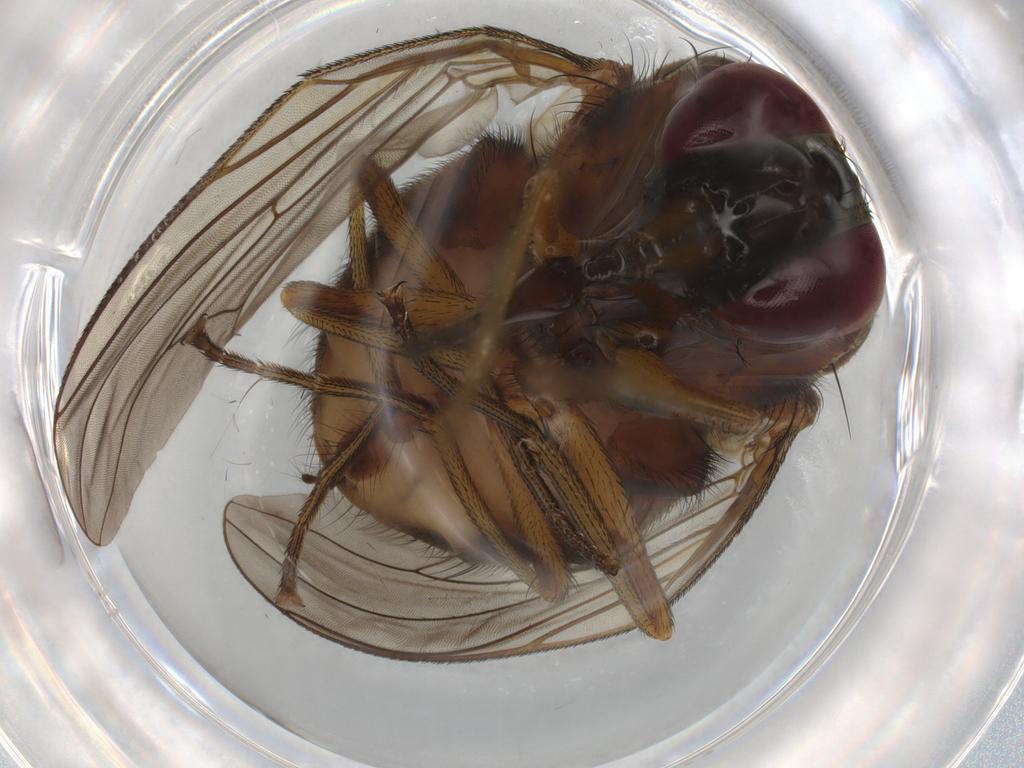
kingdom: Animalia
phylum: Arthropoda
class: Insecta
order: Diptera
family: Muscidae
